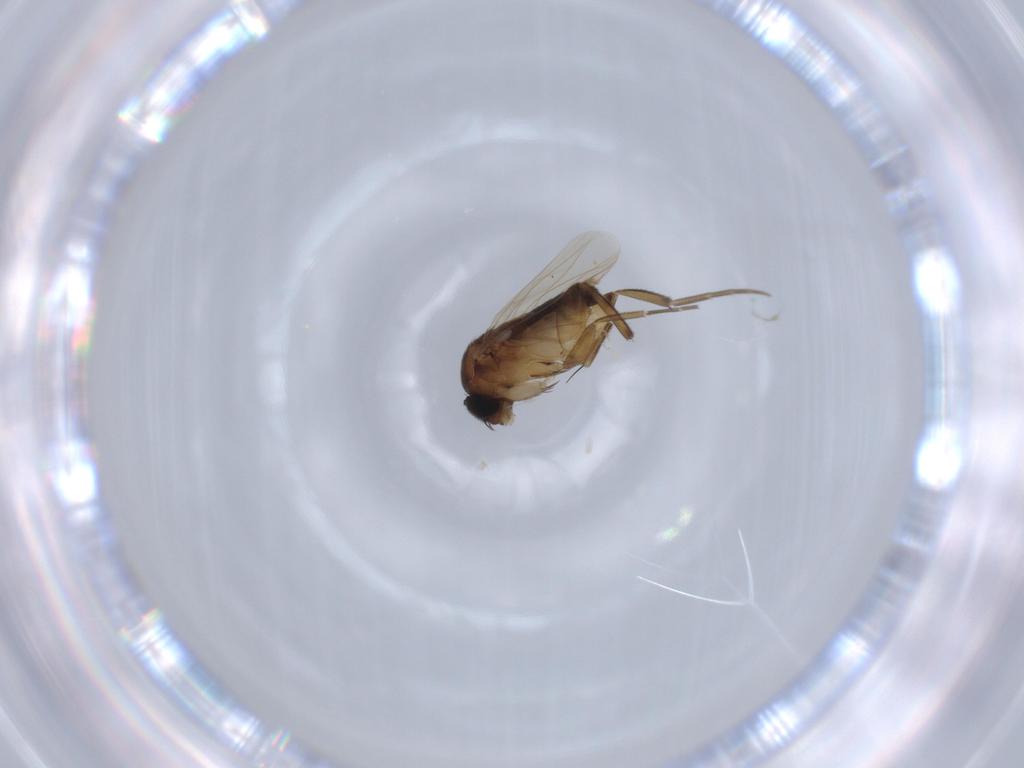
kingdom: Animalia
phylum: Arthropoda
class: Insecta
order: Diptera
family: Phoridae
